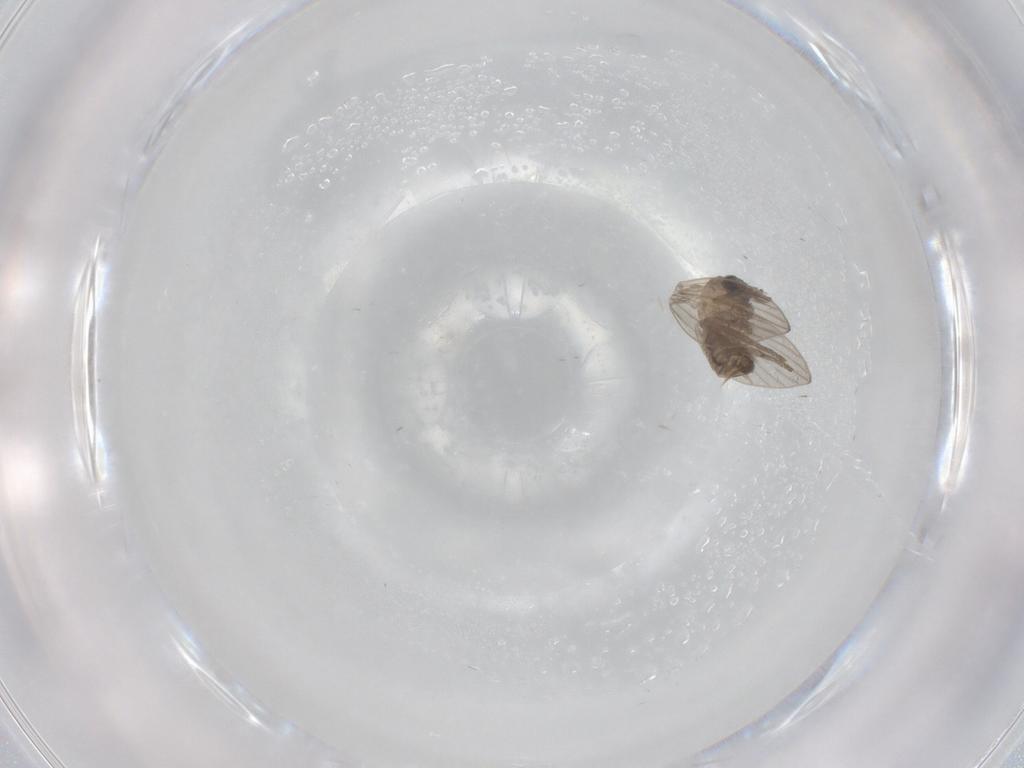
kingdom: Animalia
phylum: Arthropoda
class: Insecta
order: Diptera
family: Psychodidae
